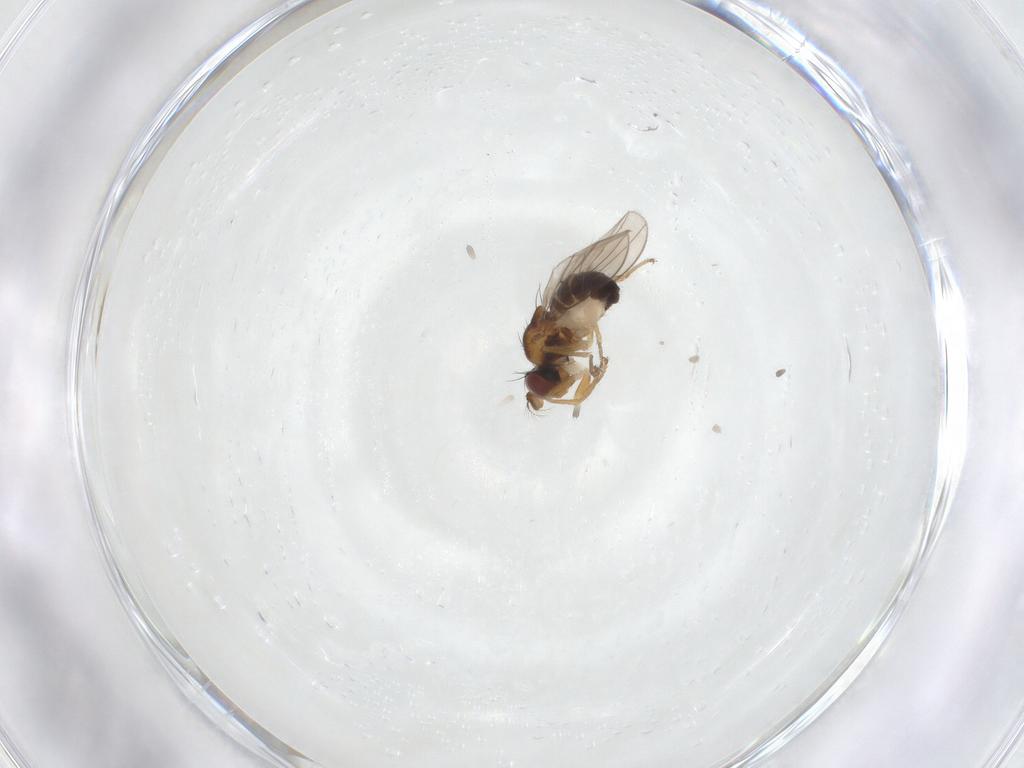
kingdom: Animalia
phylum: Arthropoda
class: Insecta
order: Diptera
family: Ephydridae
